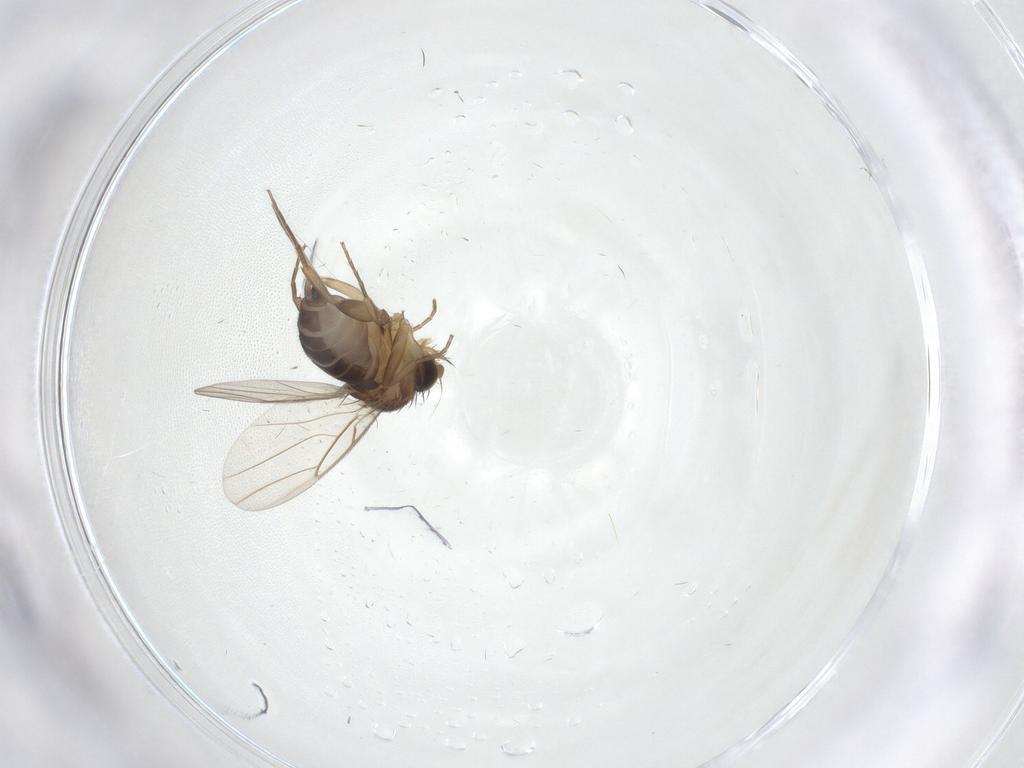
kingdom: Animalia
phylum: Arthropoda
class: Insecta
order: Diptera
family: Phoridae
